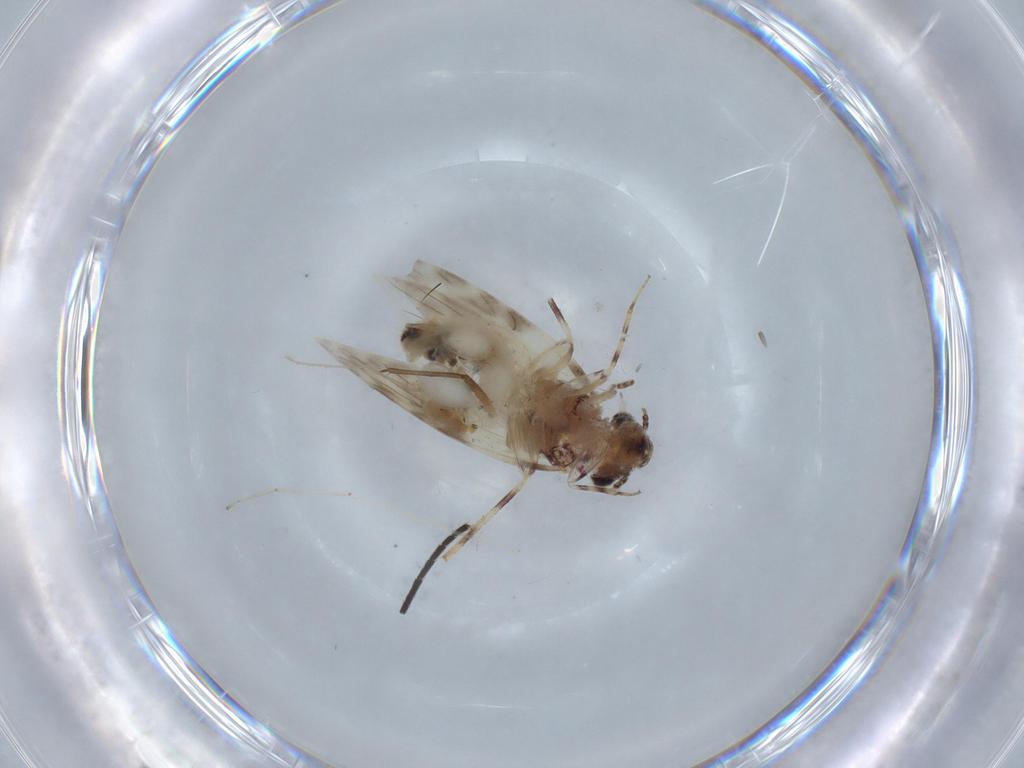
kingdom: Animalia
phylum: Arthropoda
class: Insecta
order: Psocodea
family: Lepidopsocidae
